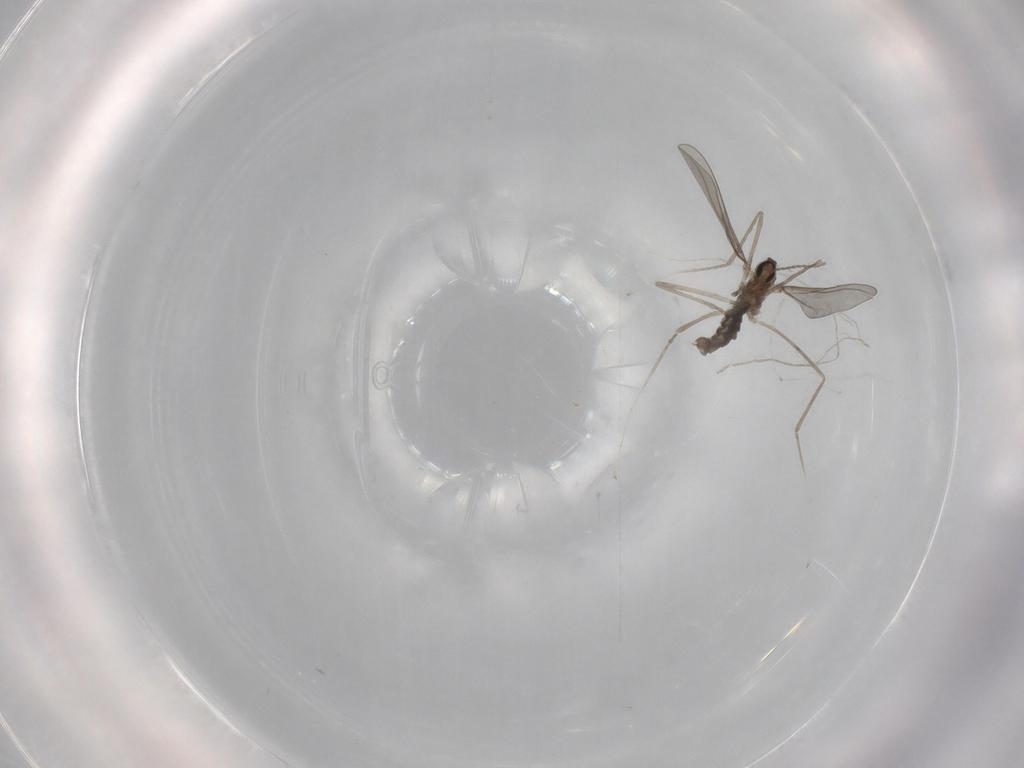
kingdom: Animalia
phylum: Arthropoda
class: Insecta
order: Diptera
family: Cecidomyiidae
